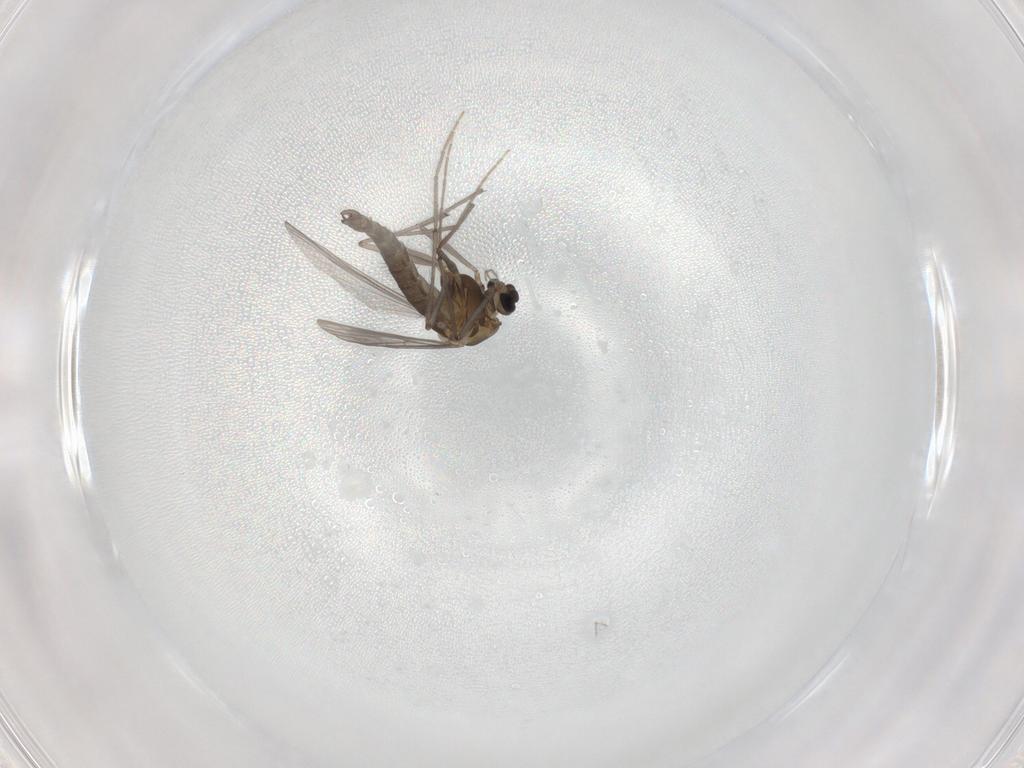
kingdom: Animalia
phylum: Arthropoda
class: Insecta
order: Diptera
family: Chironomidae
